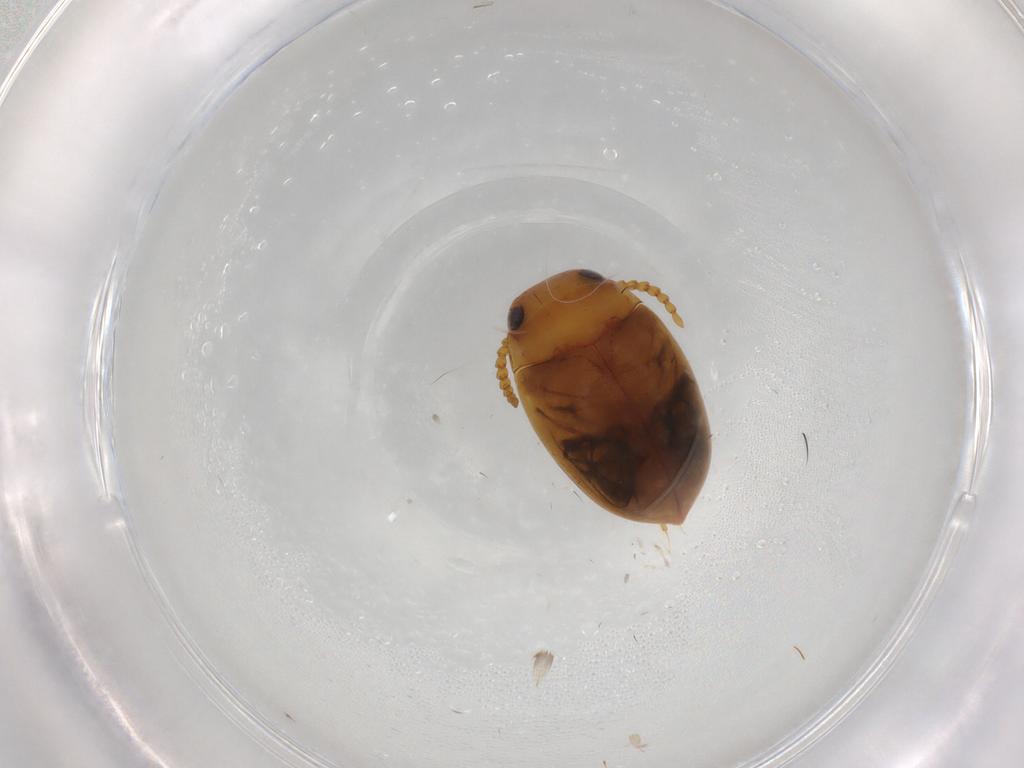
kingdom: Animalia
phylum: Arthropoda
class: Insecta
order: Coleoptera
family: Dytiscidae
